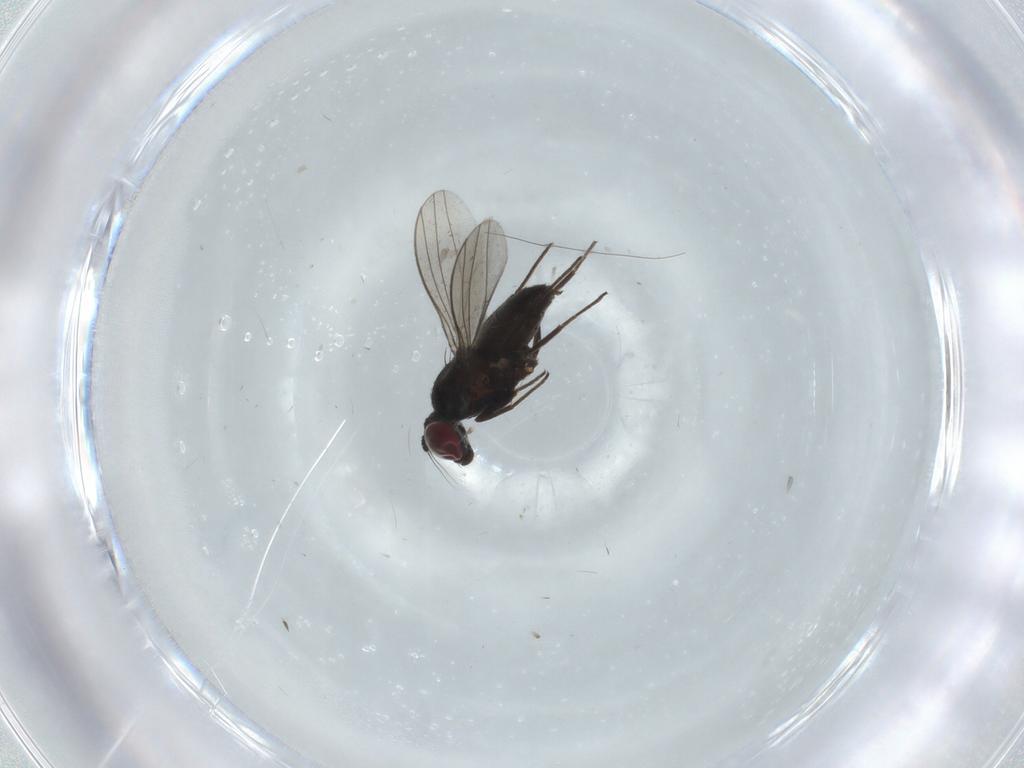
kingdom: Animalia
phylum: Arthropoda
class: Insecta
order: Diptera
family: Dolichopodidae
